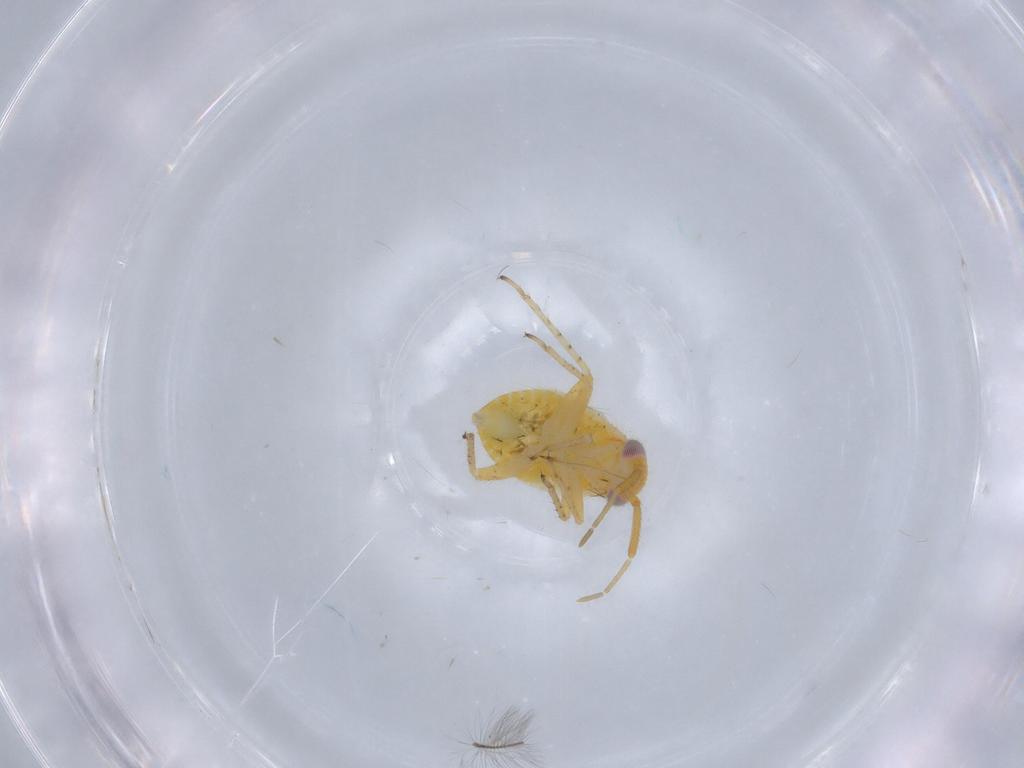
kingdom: Animalia
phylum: Arthropoda
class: Insecta
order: Hemiptera
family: Miridae
